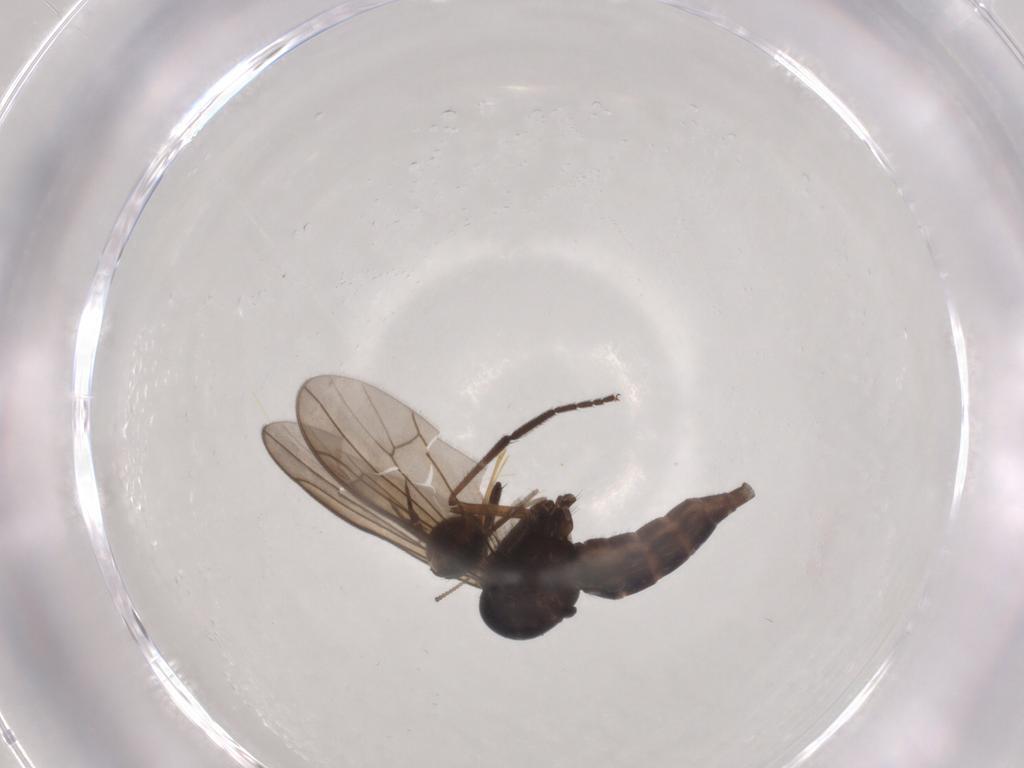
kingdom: Animalia
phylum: Arthropoda
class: Insecta
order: Diptera
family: Empididae
